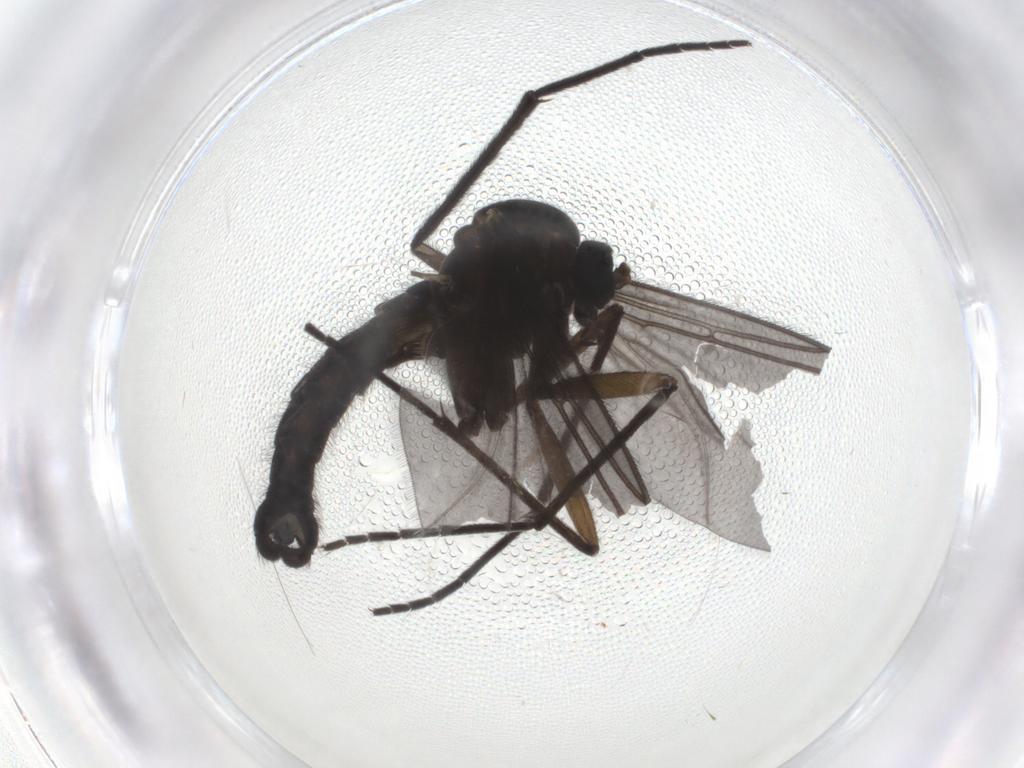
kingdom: Animalia
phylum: Arthropoda
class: Insecta
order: Diptera
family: Sciaridae
